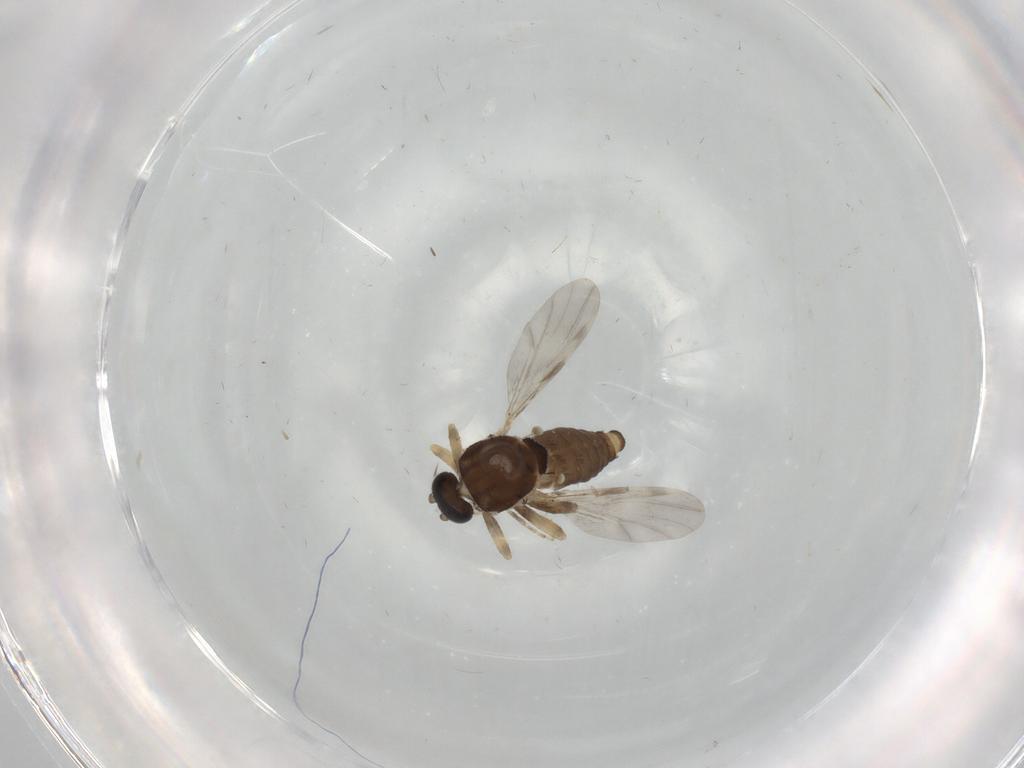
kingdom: Animalia
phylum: Arthropoda
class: Insecta
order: Diptera
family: Ceratopogonidae
